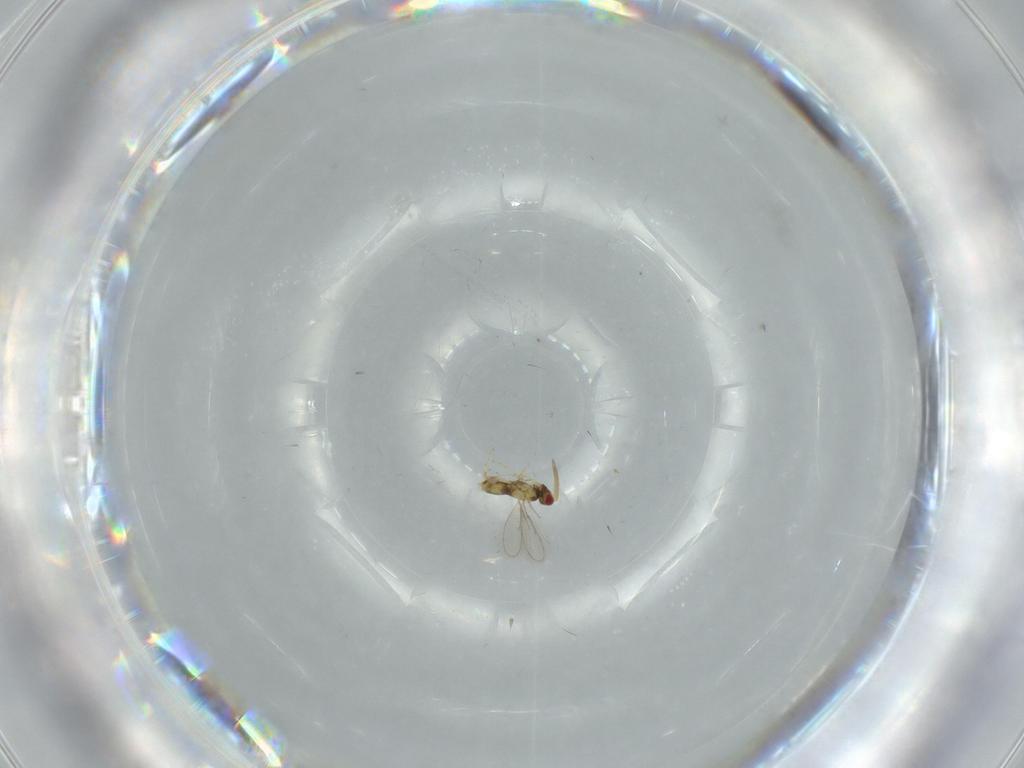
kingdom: Animalia
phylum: Arthropoda
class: Insecta
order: Hymenoptera
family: Aphelinidae
